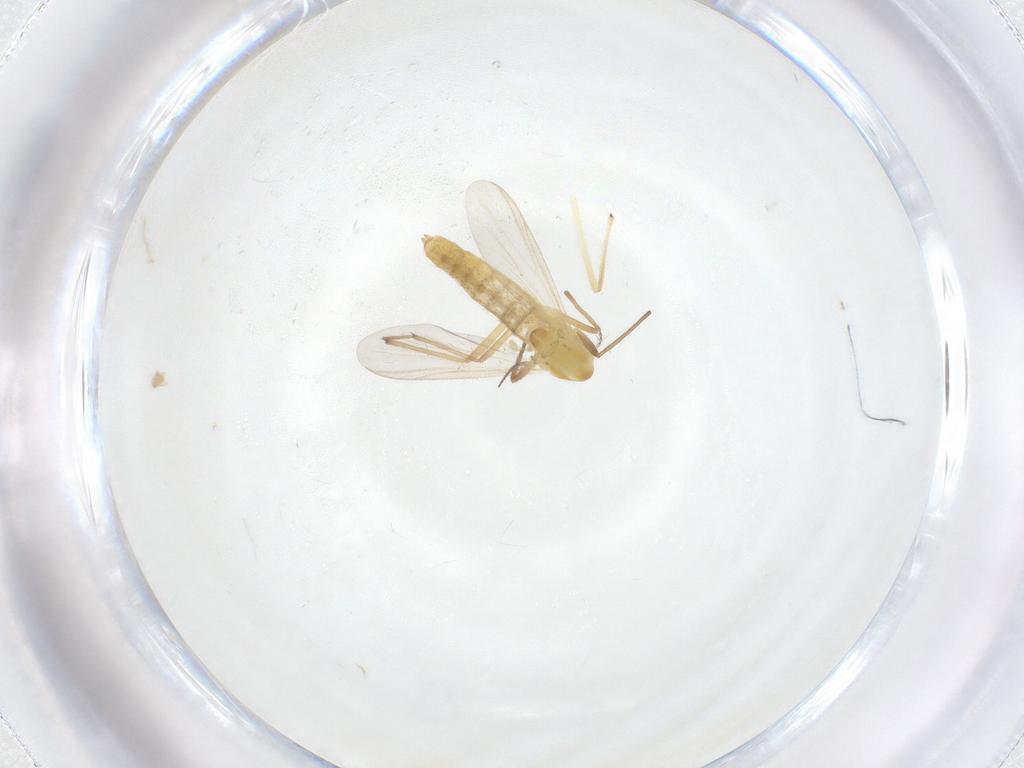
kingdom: Animalia
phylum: Arthropoda
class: Insecta
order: Diptera
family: Chironomidae
